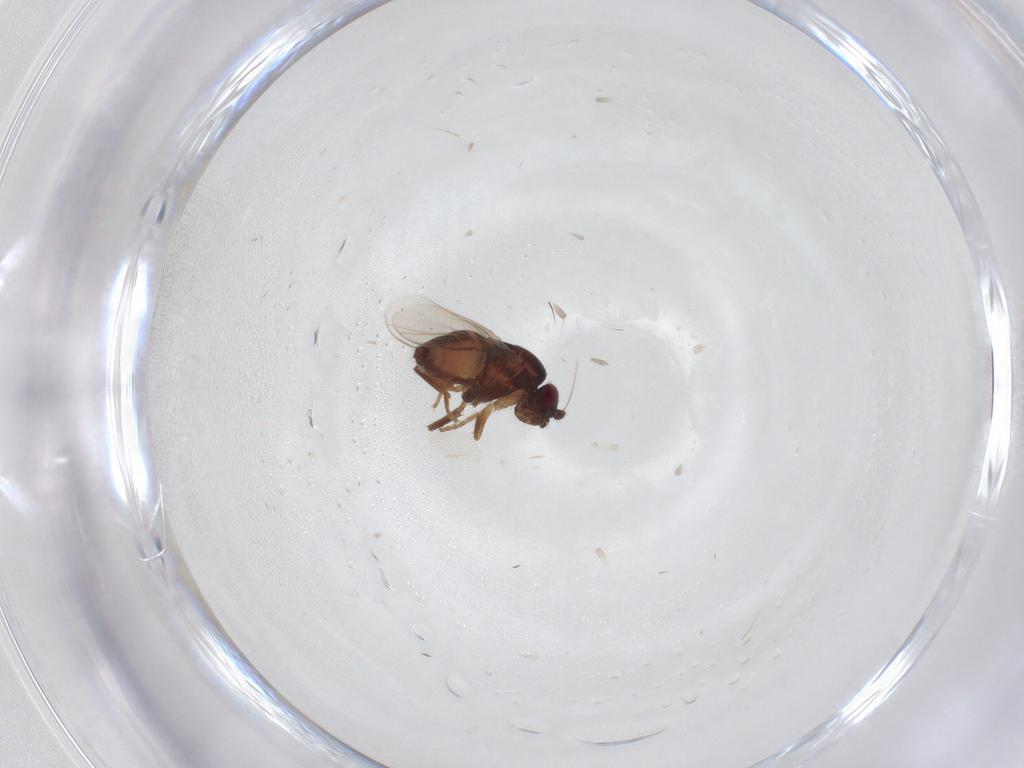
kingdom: Animalia
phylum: Arthropoda
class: Insecta
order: Diptera
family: Sphaeroceridae
